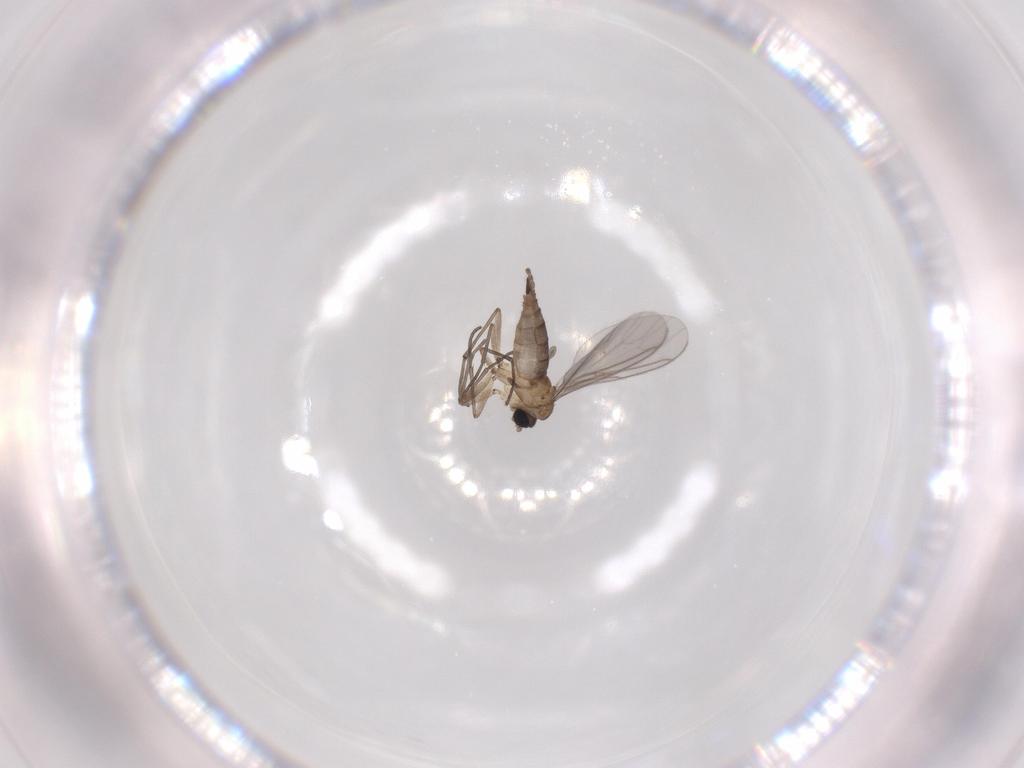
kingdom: Animalia
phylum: Arthropoda
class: Insecta
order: Diptera
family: Sciaridae
